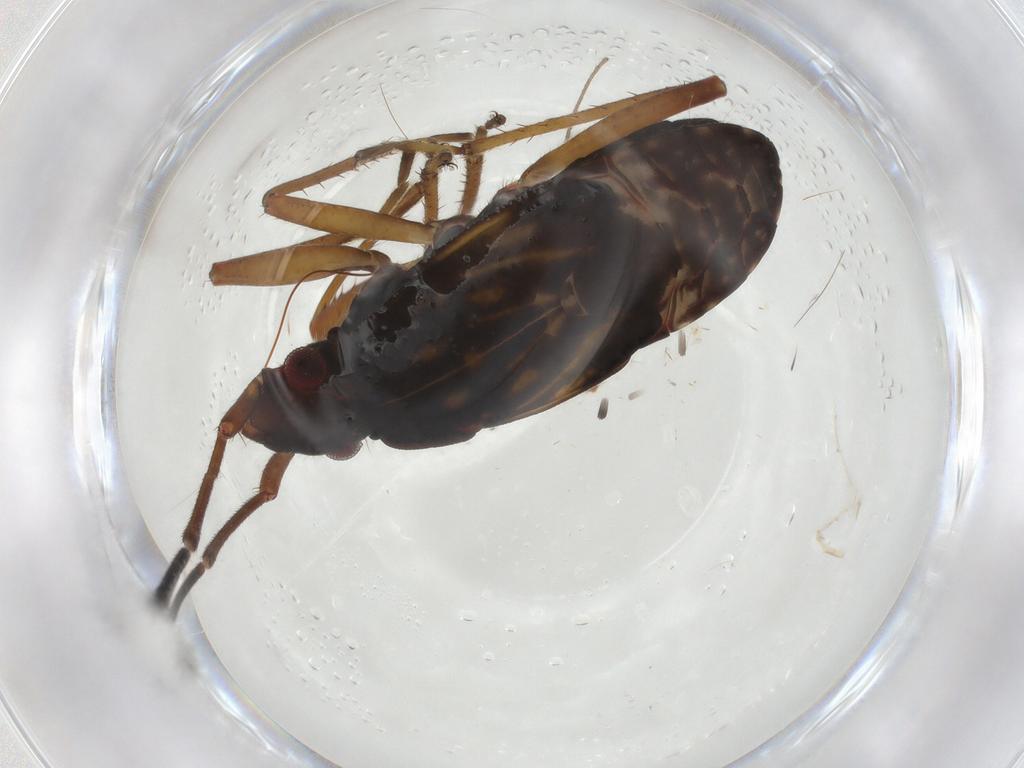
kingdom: Animalia
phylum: Arthropoda
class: Insecta
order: Hemiptera
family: Rhyparochromidae
